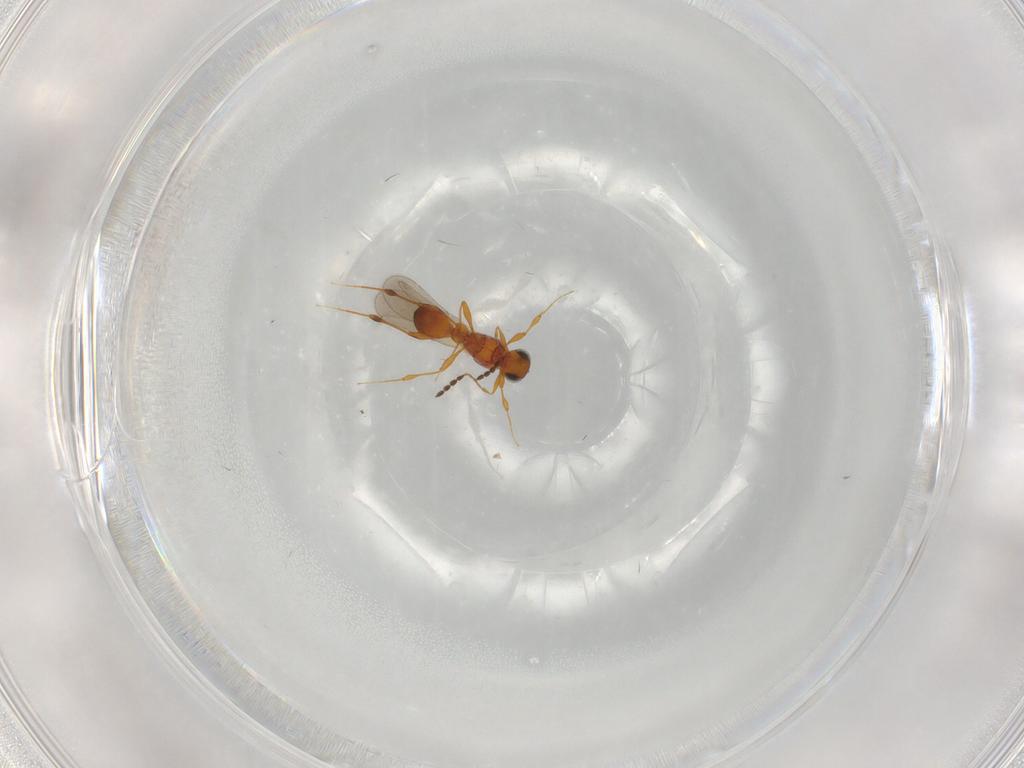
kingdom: Animalia
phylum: Arthropoda
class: Insecta
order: Hymenoptera
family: Platygastridae
